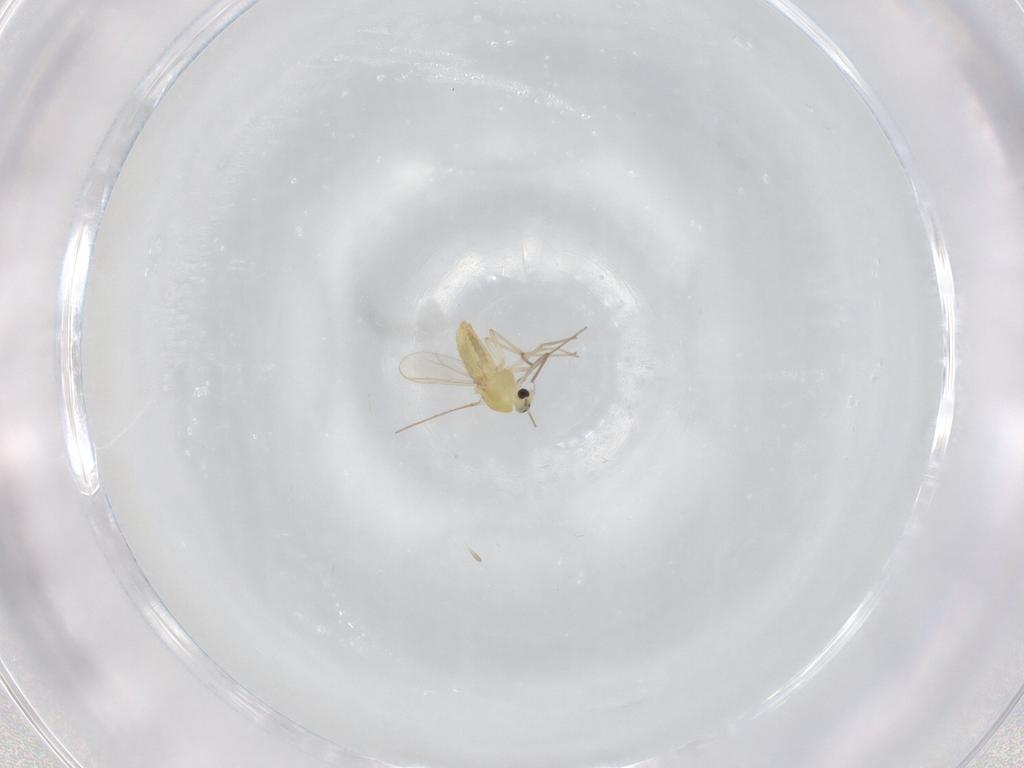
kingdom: Animalia
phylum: Arthropoda
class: Insecta
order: Diptera
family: Chironomidae
